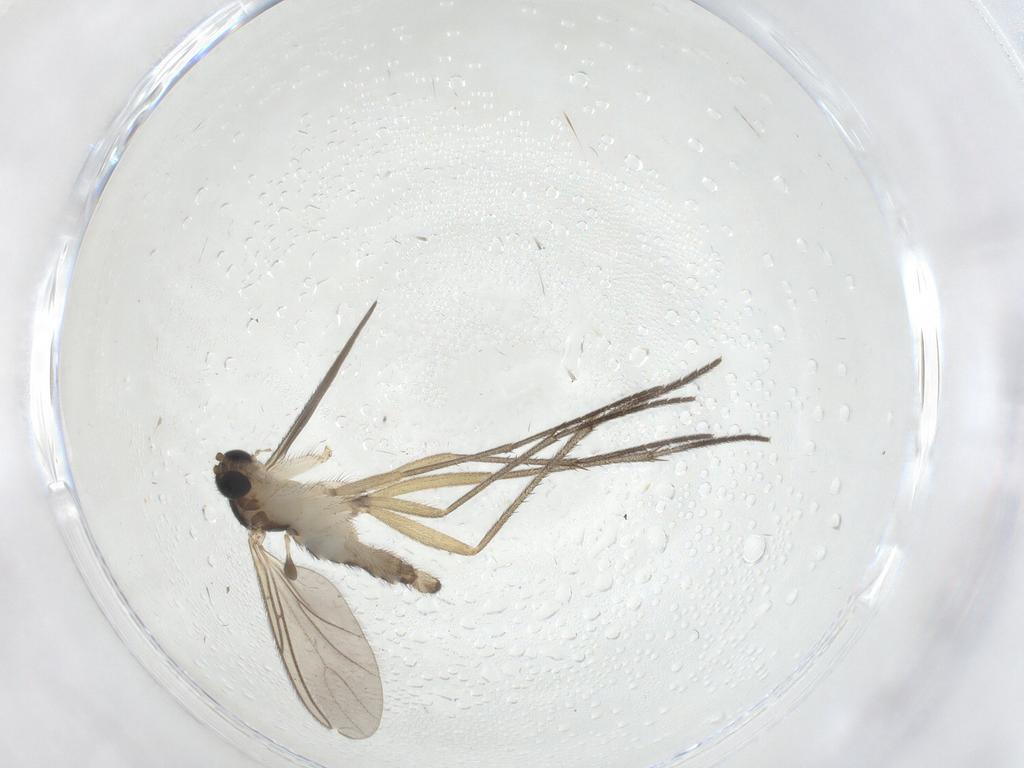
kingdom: Animalia
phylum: Arthropoda
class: Insecta
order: Diptera
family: Sciaridae
